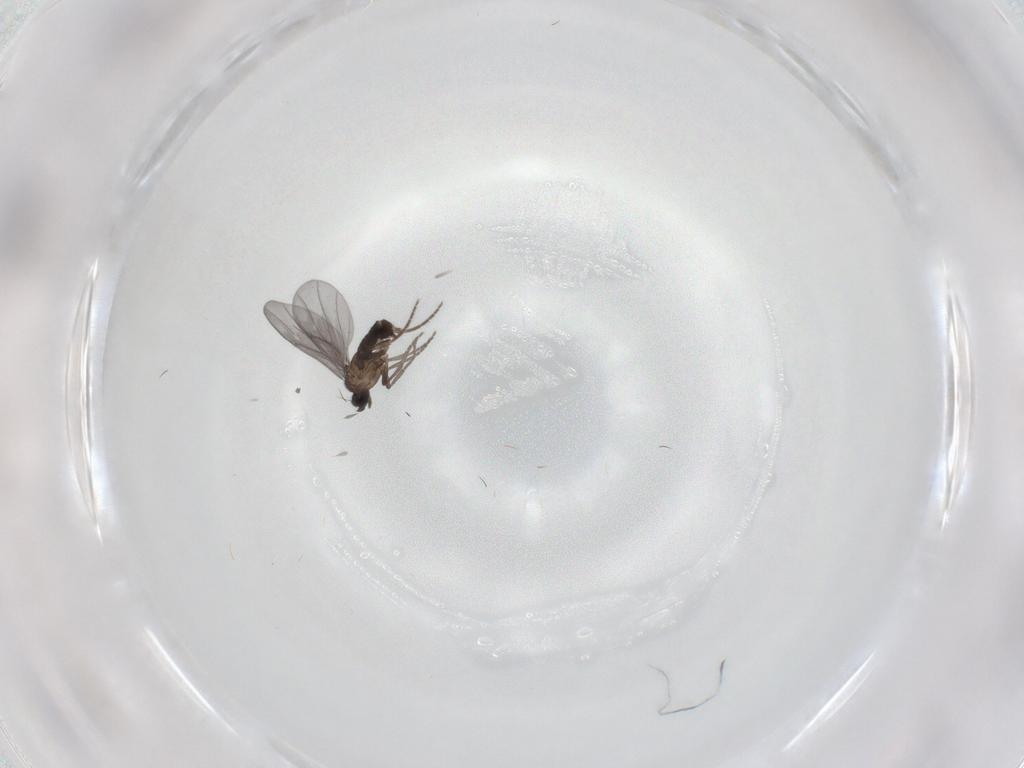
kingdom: Animalia
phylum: Arthropoda
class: Insecta
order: Diptera
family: Phoridae
